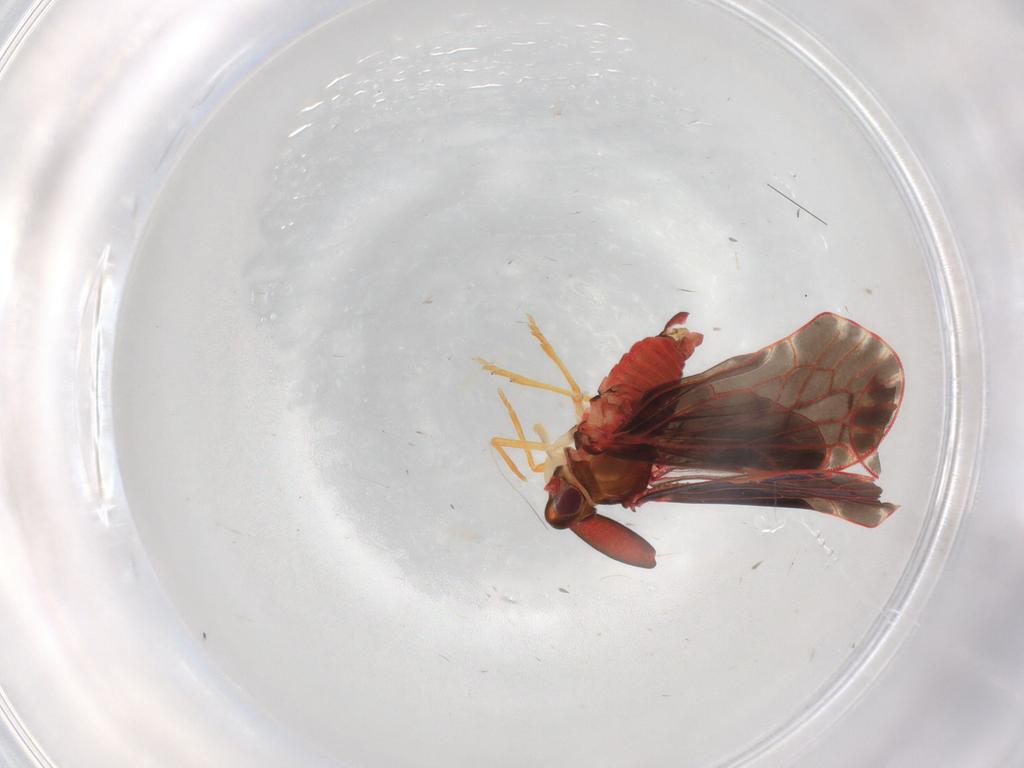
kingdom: Animalia
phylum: Arthropoda
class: Insecta
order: Hemiptera
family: Derbidae
